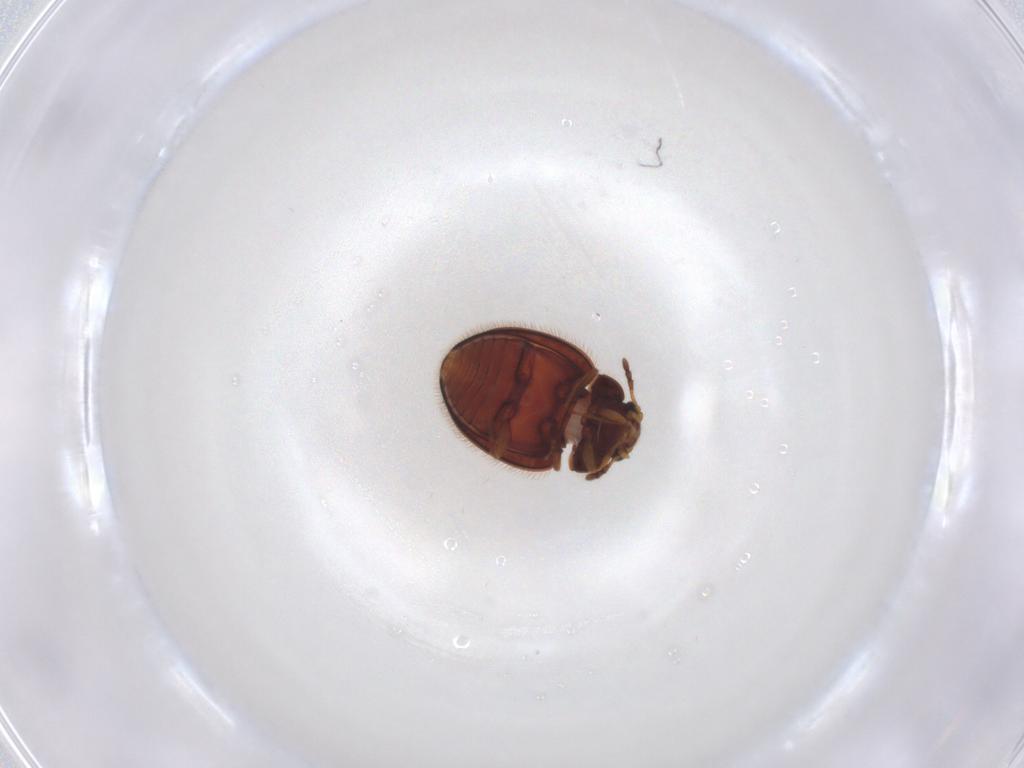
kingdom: Animalia
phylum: Arthropoda
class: Insecta
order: Coleoptera
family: Anamorphidae
